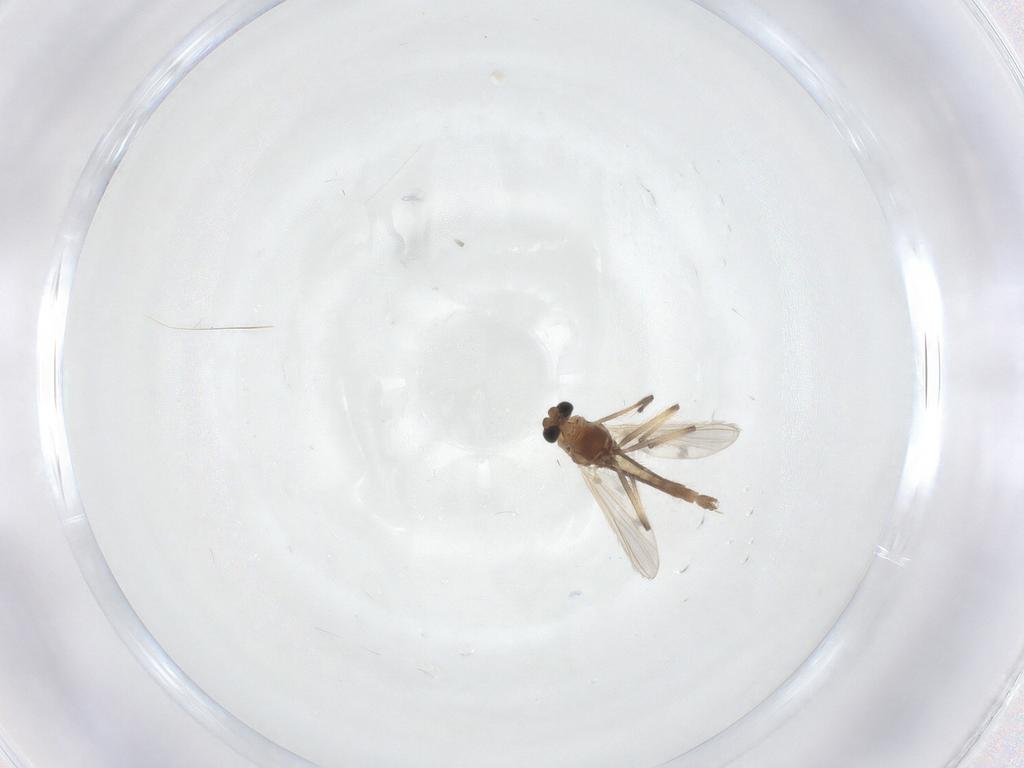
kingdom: Animalia
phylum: Arthropoda
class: Insecta
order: Diptera
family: Chironomidae
